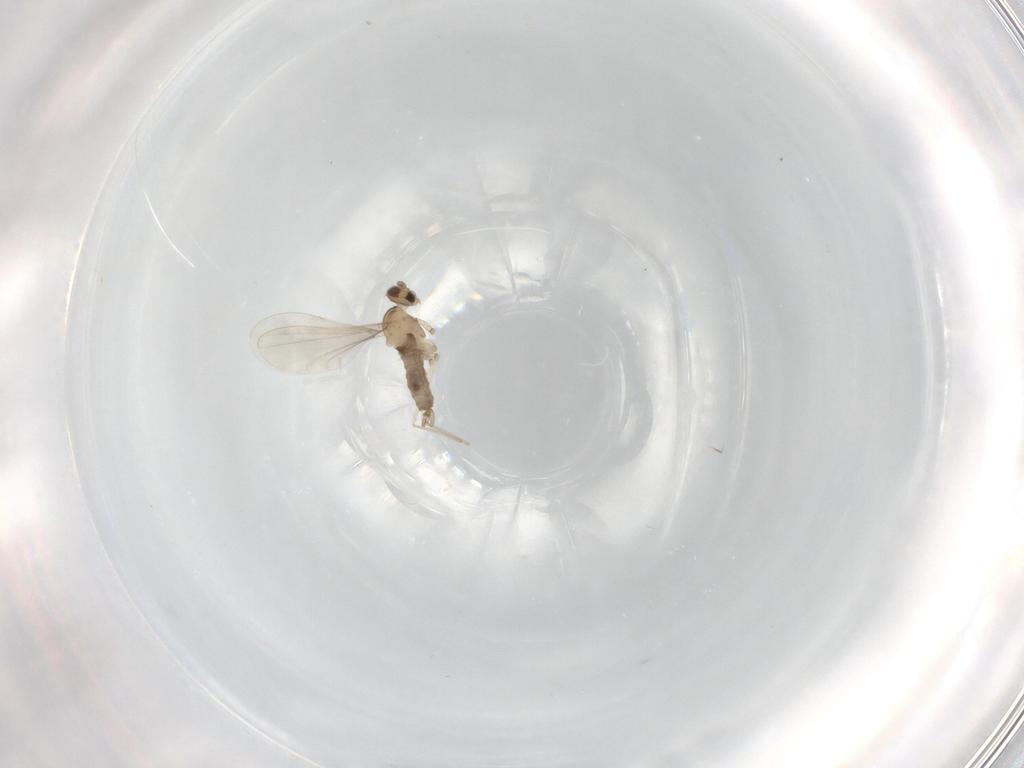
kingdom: Animalia
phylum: Arthropoda
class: Insecta
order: Diptera
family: Cecidomyiidae
